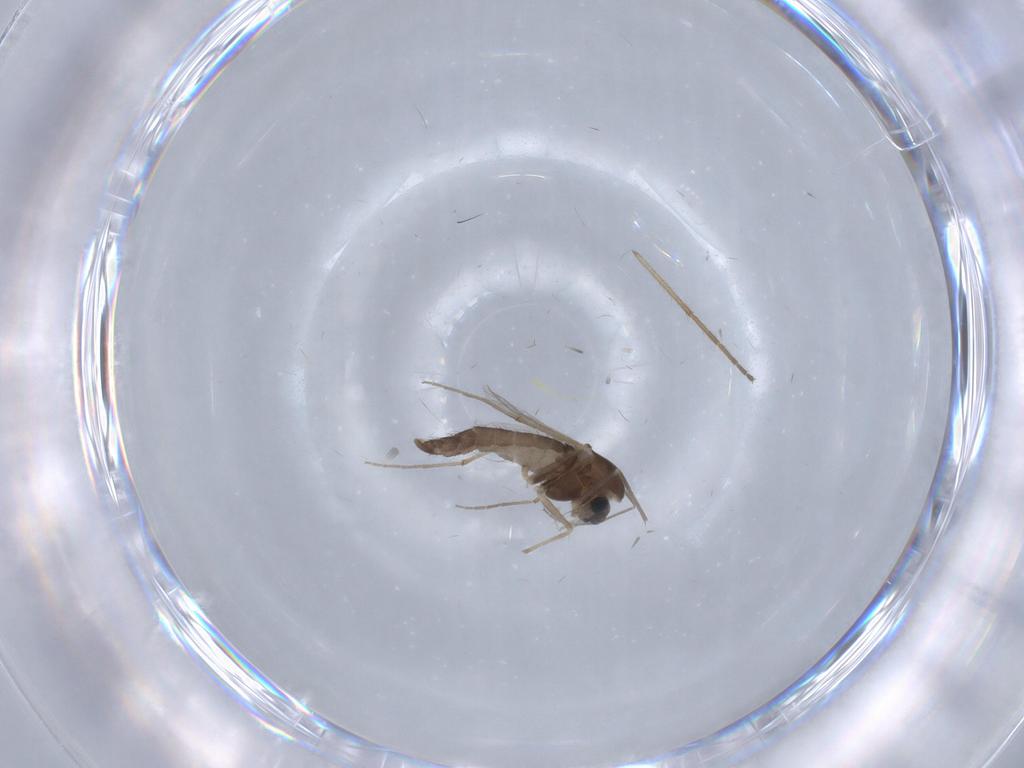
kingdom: Animalia
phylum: Arthropoda
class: Insecta
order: Diptera
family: Chironomidae
